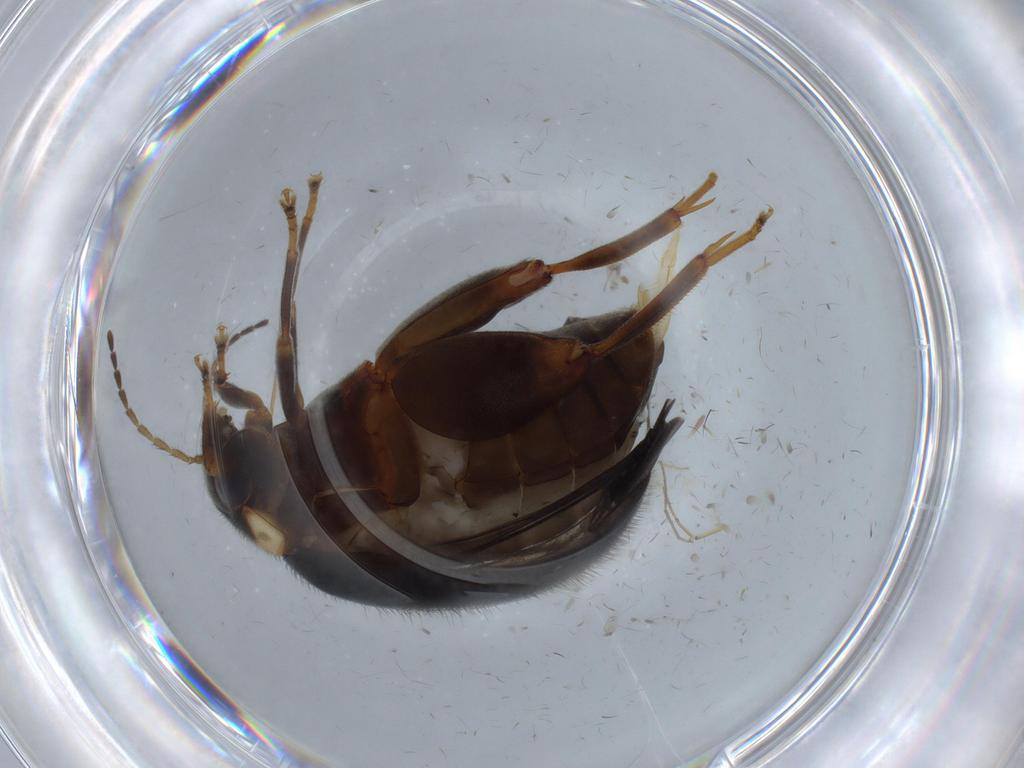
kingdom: Animalia
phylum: Arthropoda
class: Insecta
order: Coleoptera
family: Scirtidae
